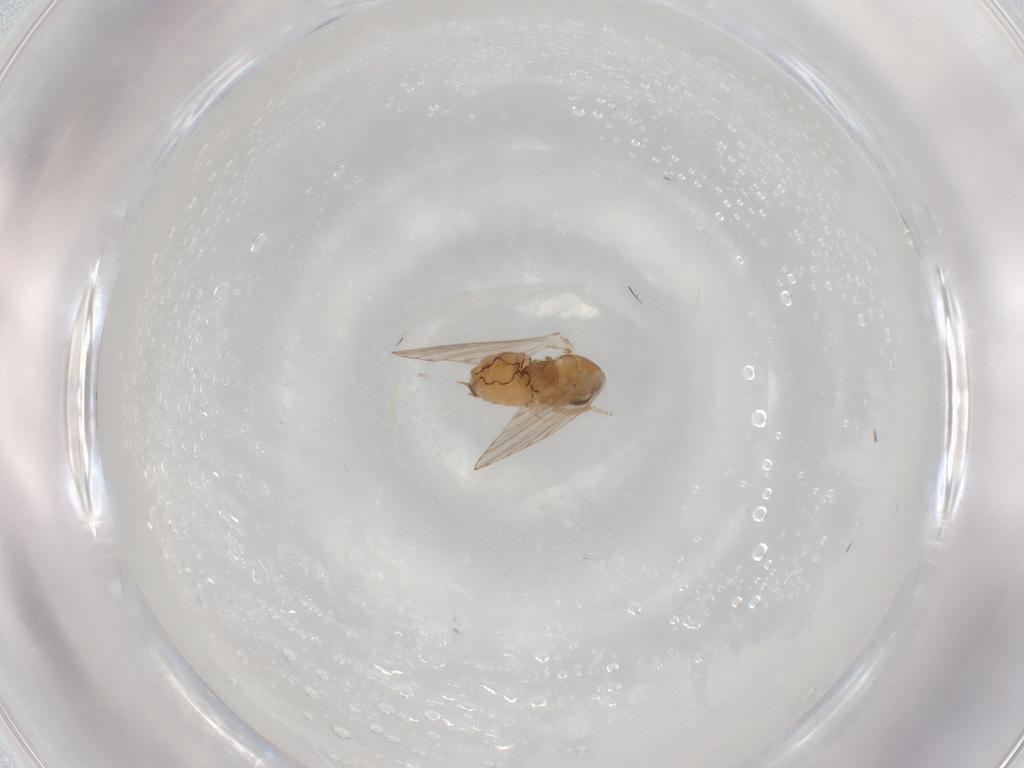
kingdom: Animalia
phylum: Arthropoda
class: Insecta
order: Diptera
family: Psychodidae
